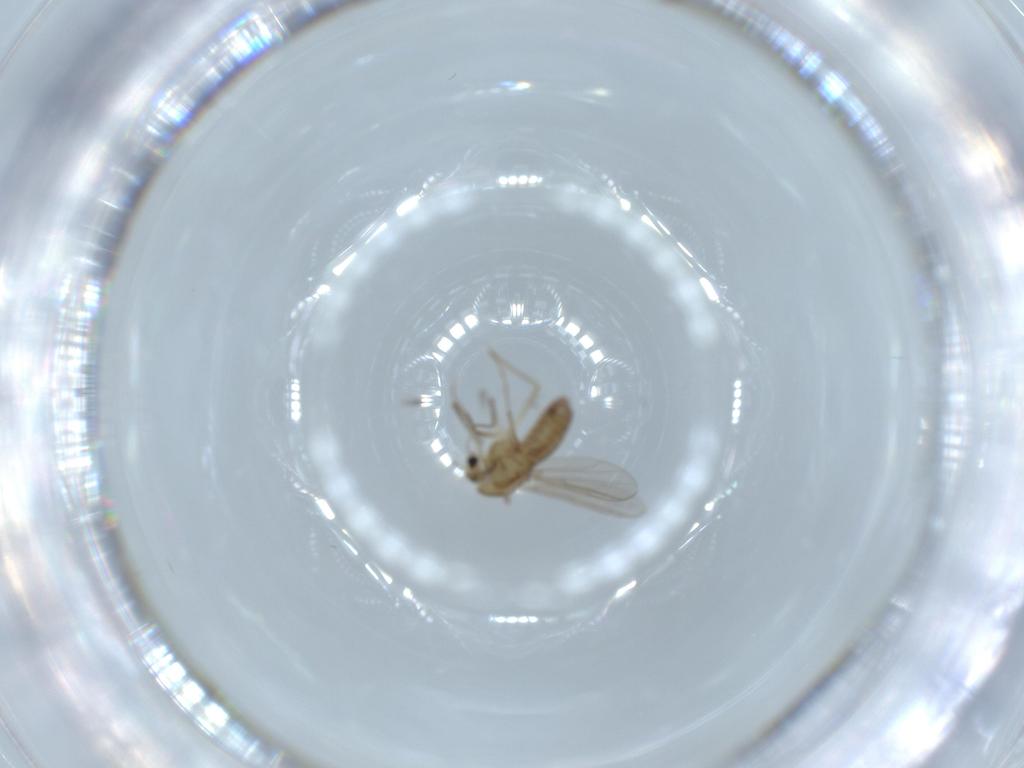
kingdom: Animalia
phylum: Arthropoda
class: Insecta
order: Diptera
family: Chironomidae
